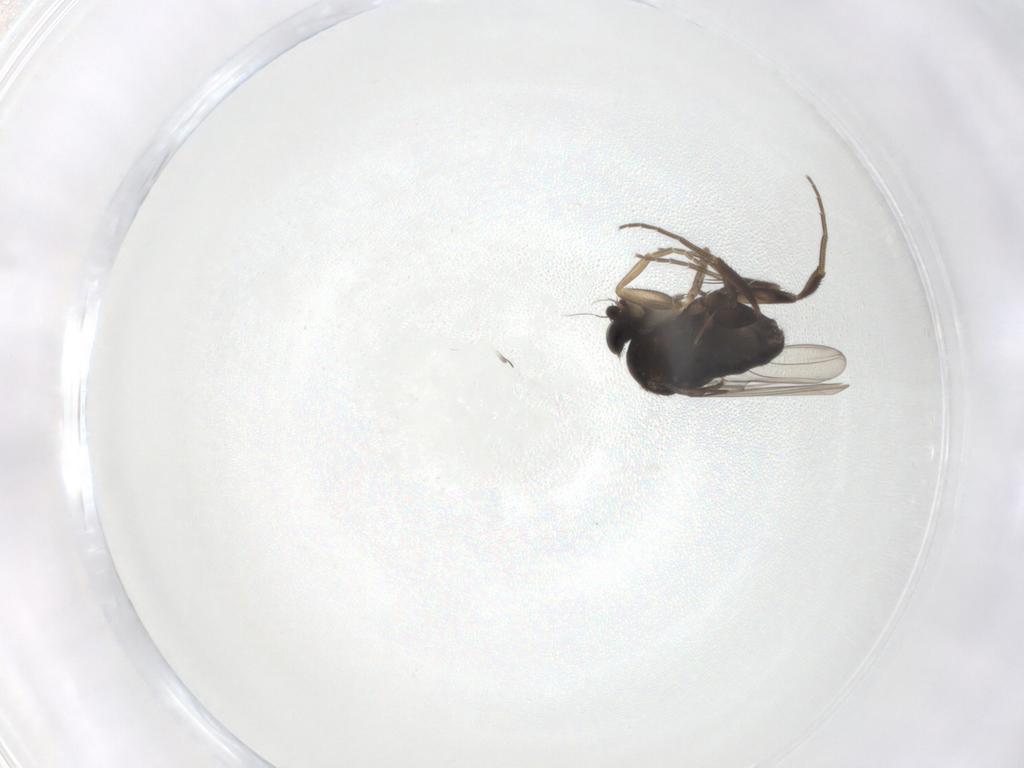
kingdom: Animalia
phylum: Arthropoda
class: Insecta
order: Diptera
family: Phoridae
